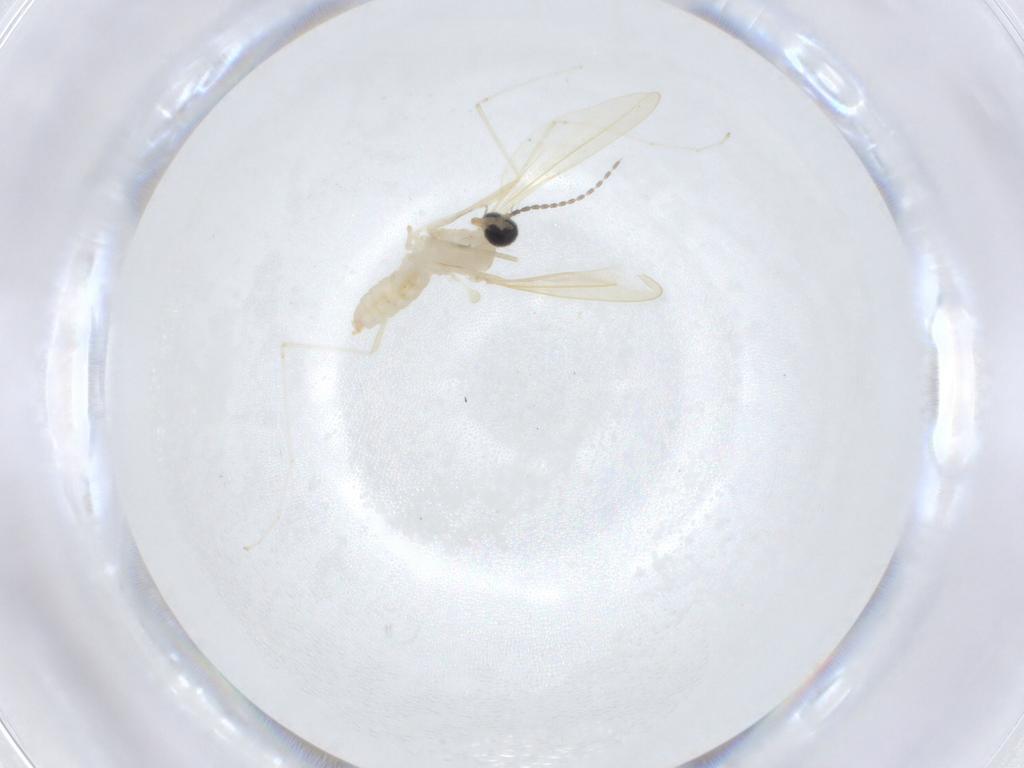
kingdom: Animalia
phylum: Arthropoda
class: Insecta
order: Diptera
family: Cecidomyiidae
